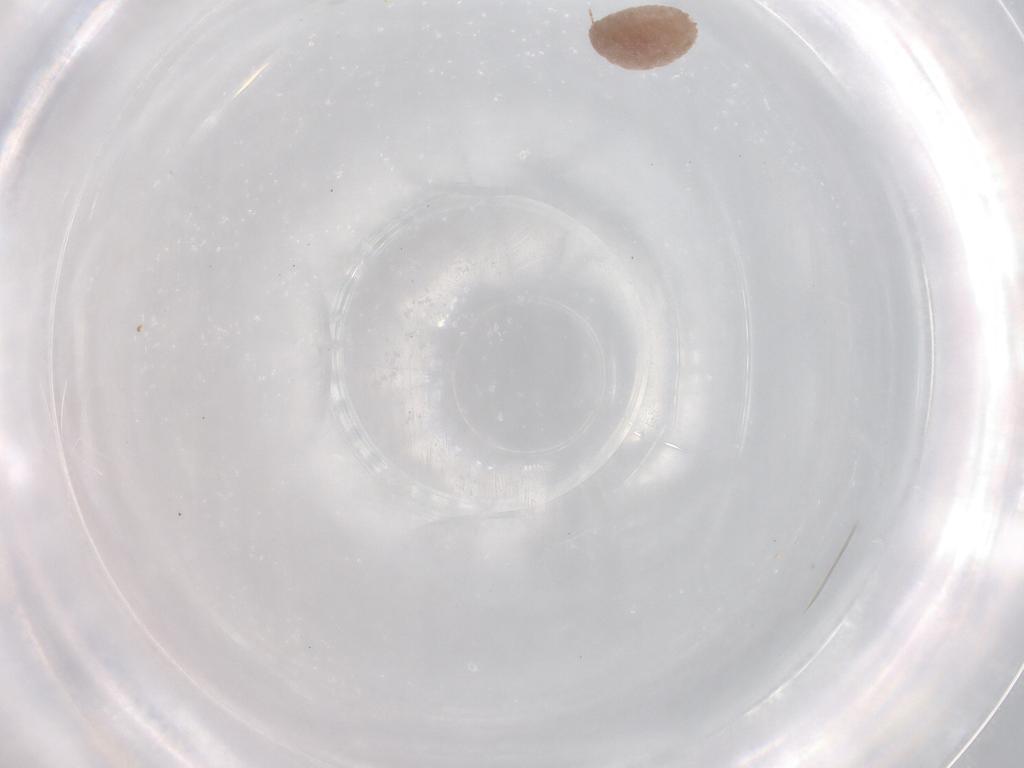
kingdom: Animalia
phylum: Arthropoda
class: Insecta
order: Hemiptera
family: Pseudococcidae
